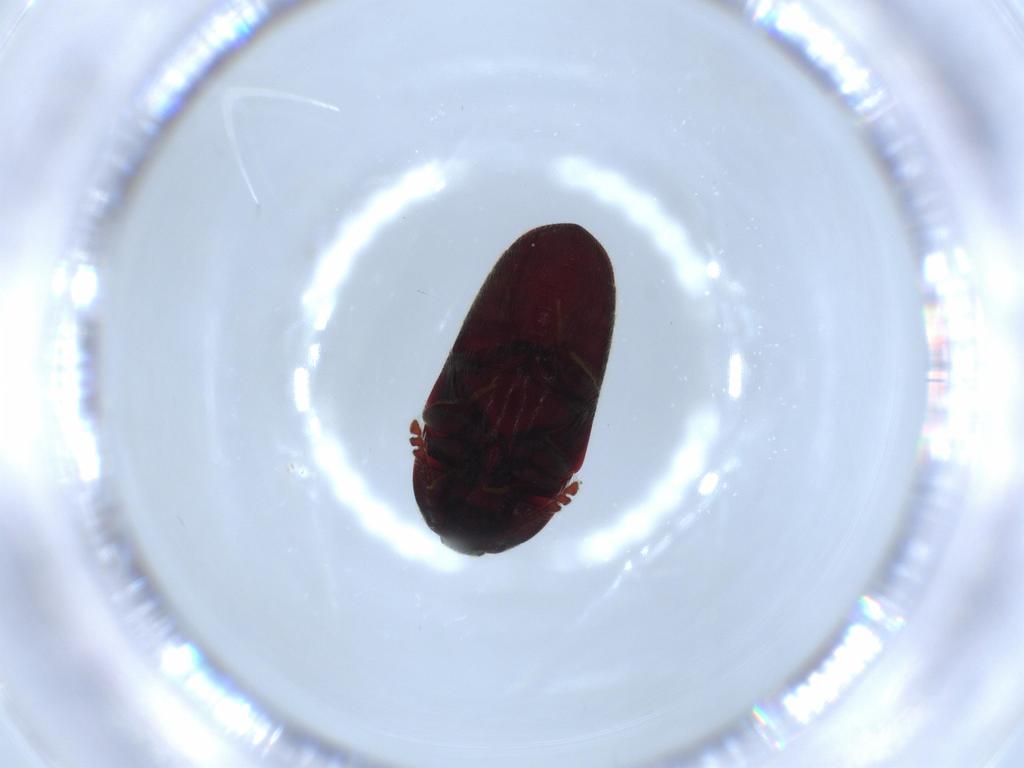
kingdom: Animalia
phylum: Arthropoda
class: Insecta
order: Coleoptera
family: Throscidae
